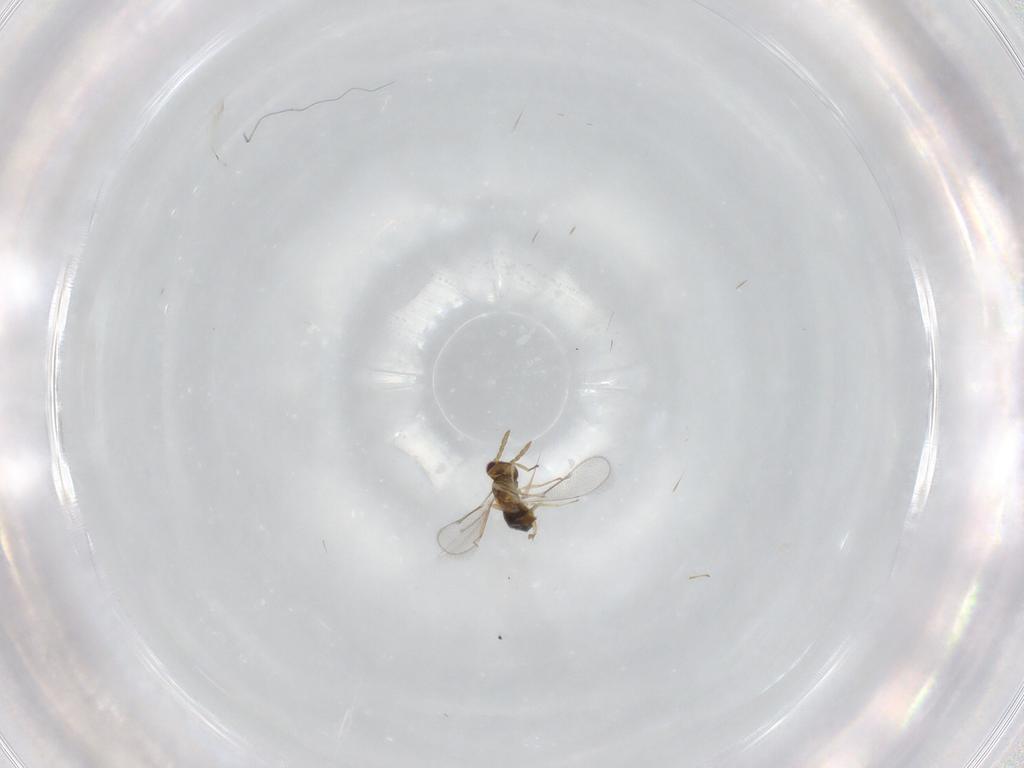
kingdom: Animalia
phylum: Arthropoda
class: Insecta
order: Hymenoptera
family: Aphelinidae
